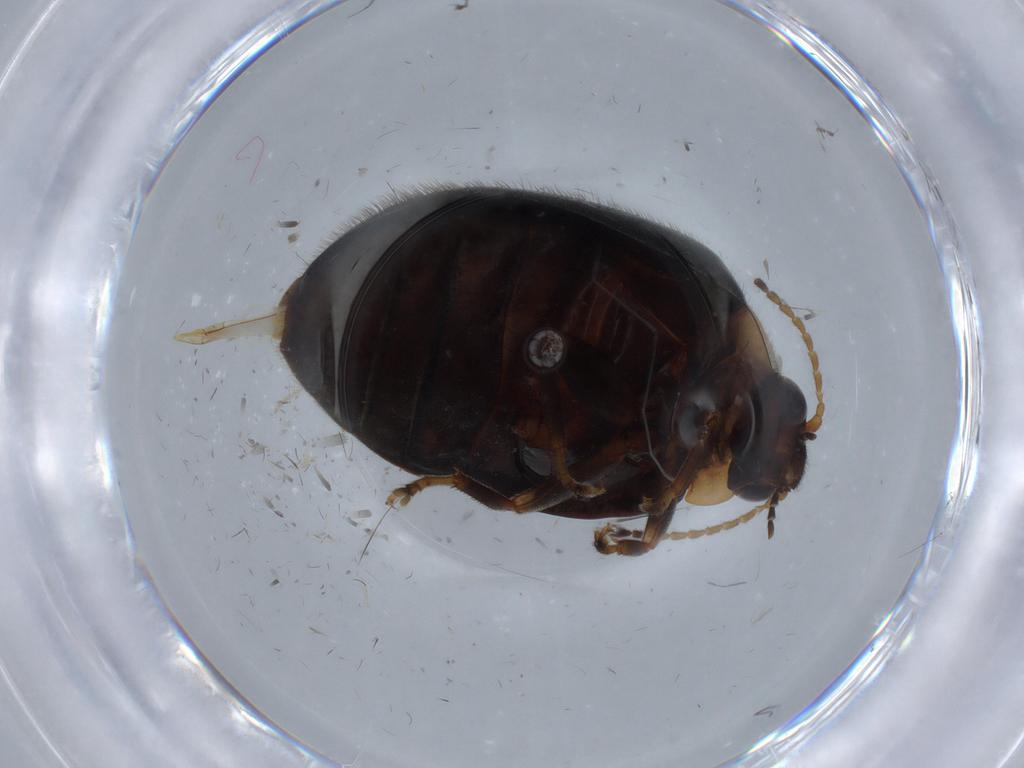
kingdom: Animalia
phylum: Arthropoda
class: Insecta
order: Coleoptera
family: Scirtidae
